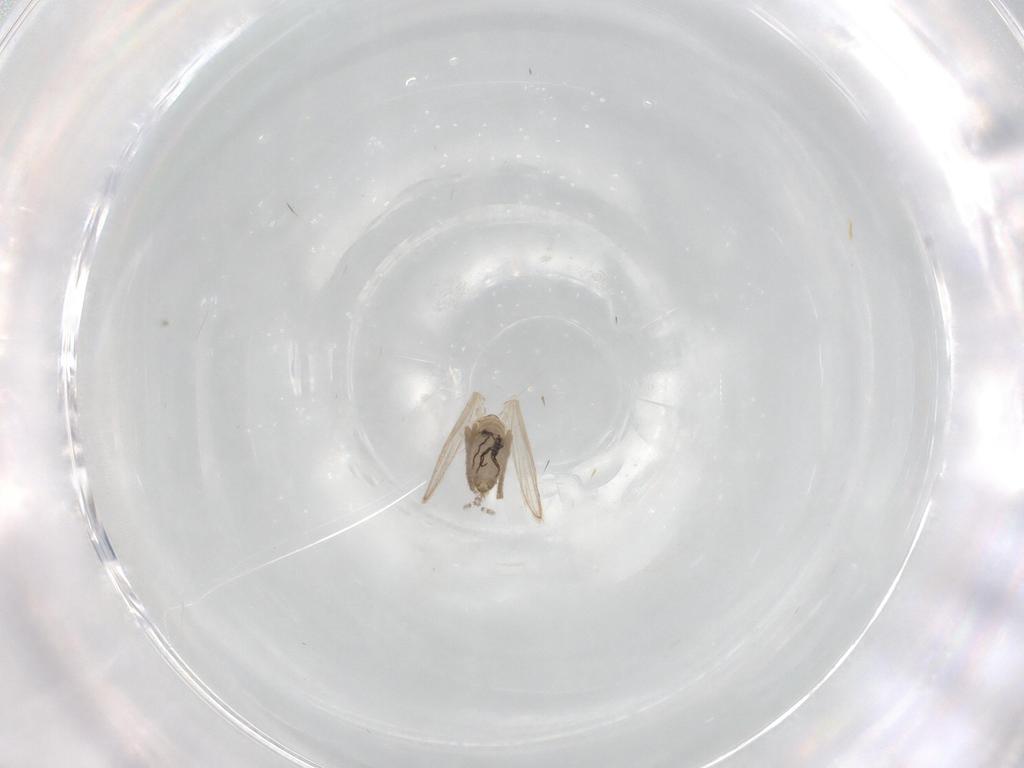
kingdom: Animalia
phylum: Arthropoda
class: Insecta
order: Diptera
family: Psychodidae
